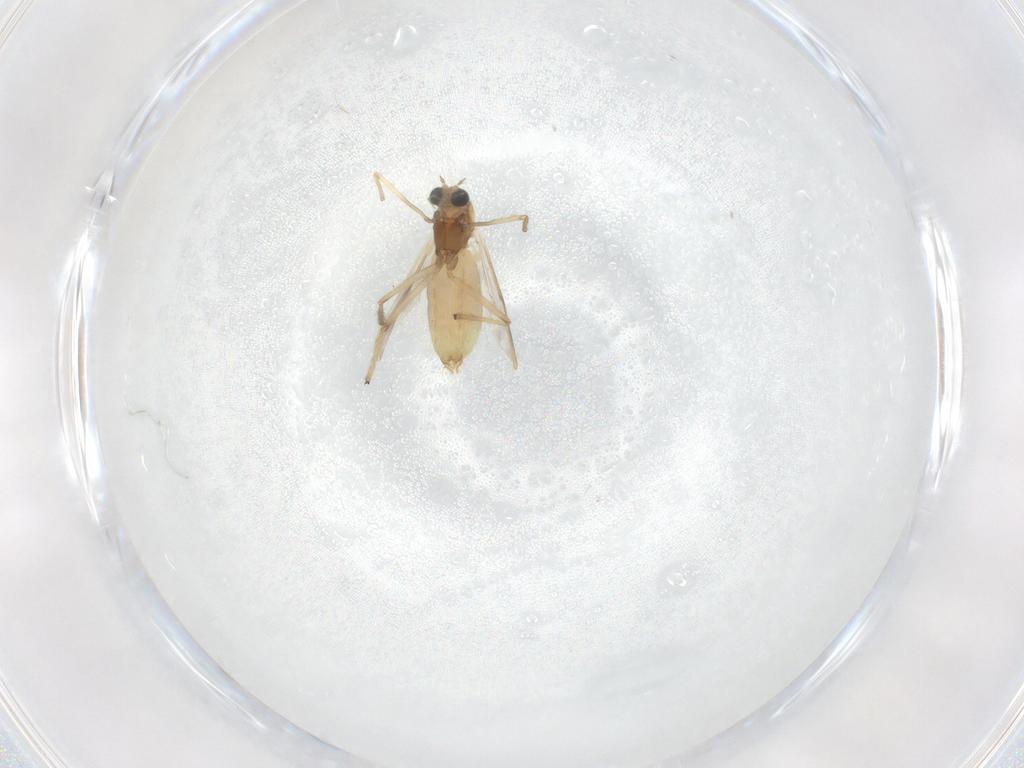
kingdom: Animalia
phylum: Arthropoda
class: Insecta
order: Diptera
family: Chironomidae
